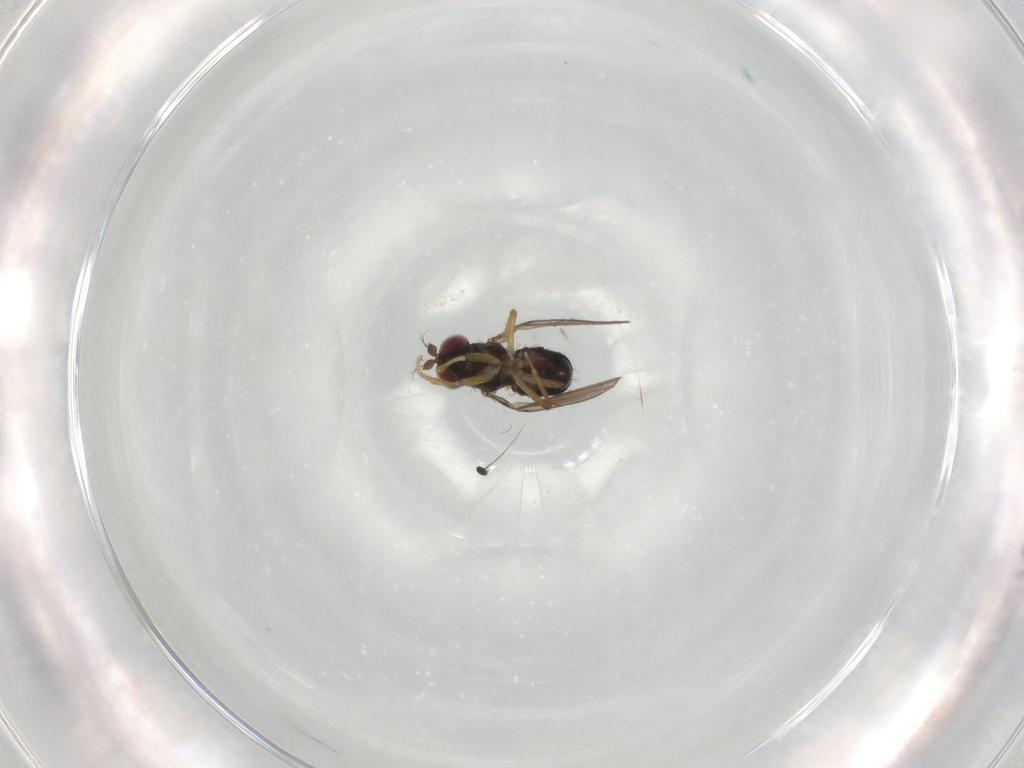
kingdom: Animalia
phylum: Arthropoda
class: Insecta
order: Diptera
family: Ephydridae
